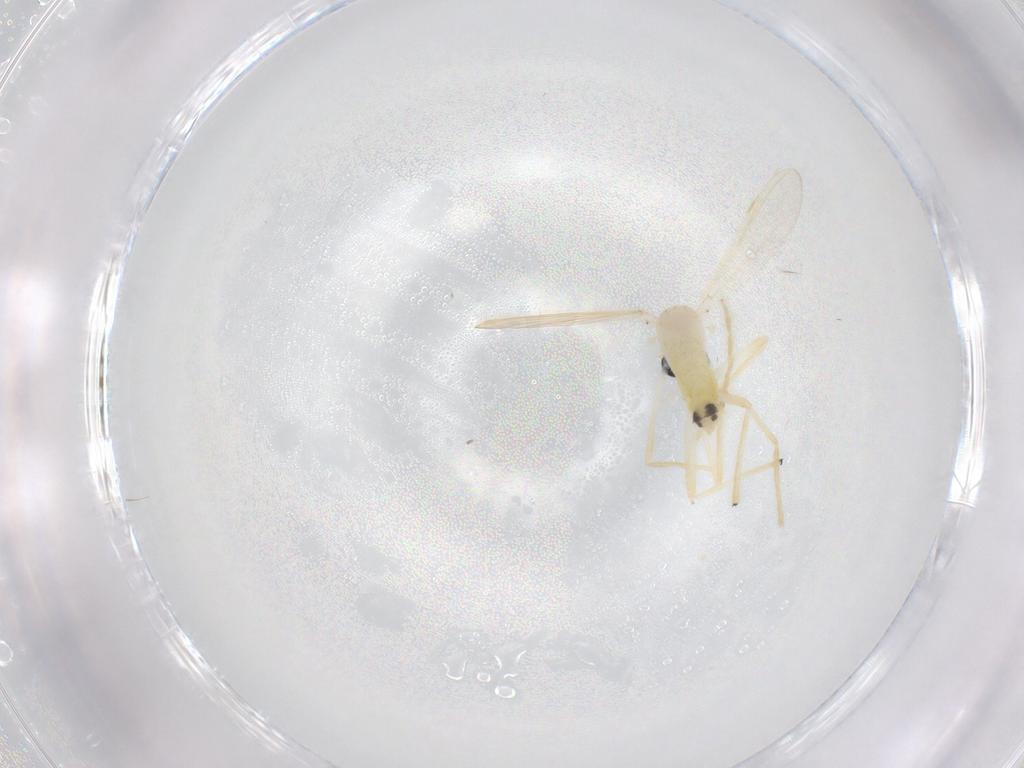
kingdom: Animalia
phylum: Arthropoda
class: Insecta
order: Diptera
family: Chironomidae
